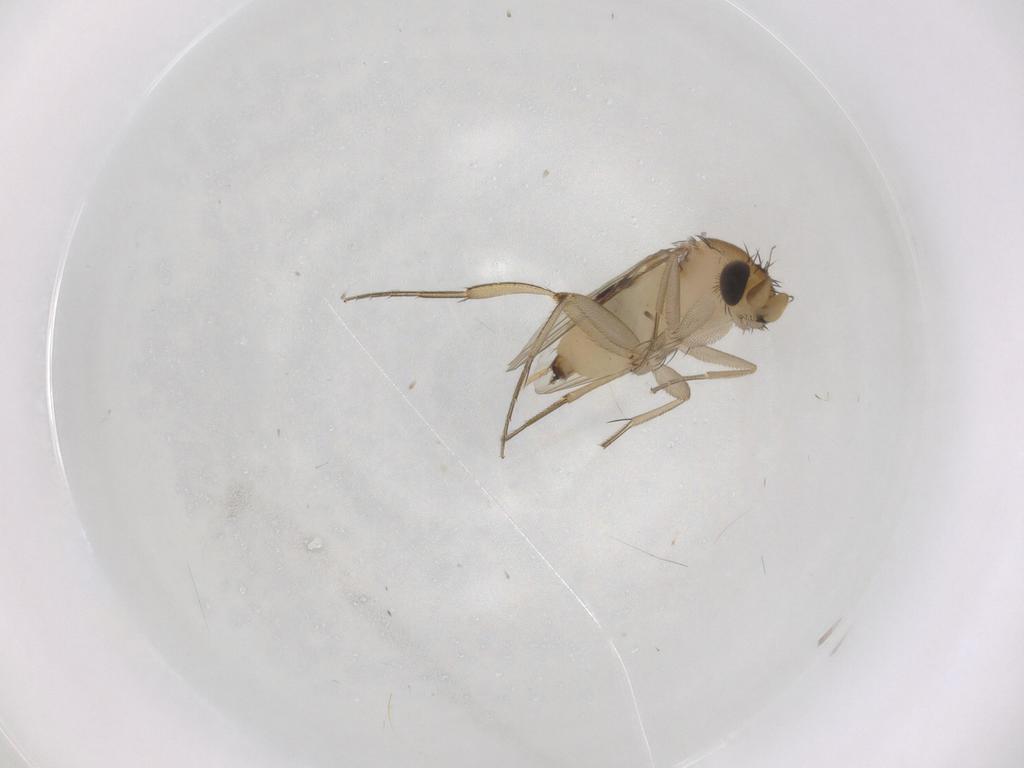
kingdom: Animalia
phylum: Arthropoda
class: Insecta
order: Diptera
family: Phoridae
